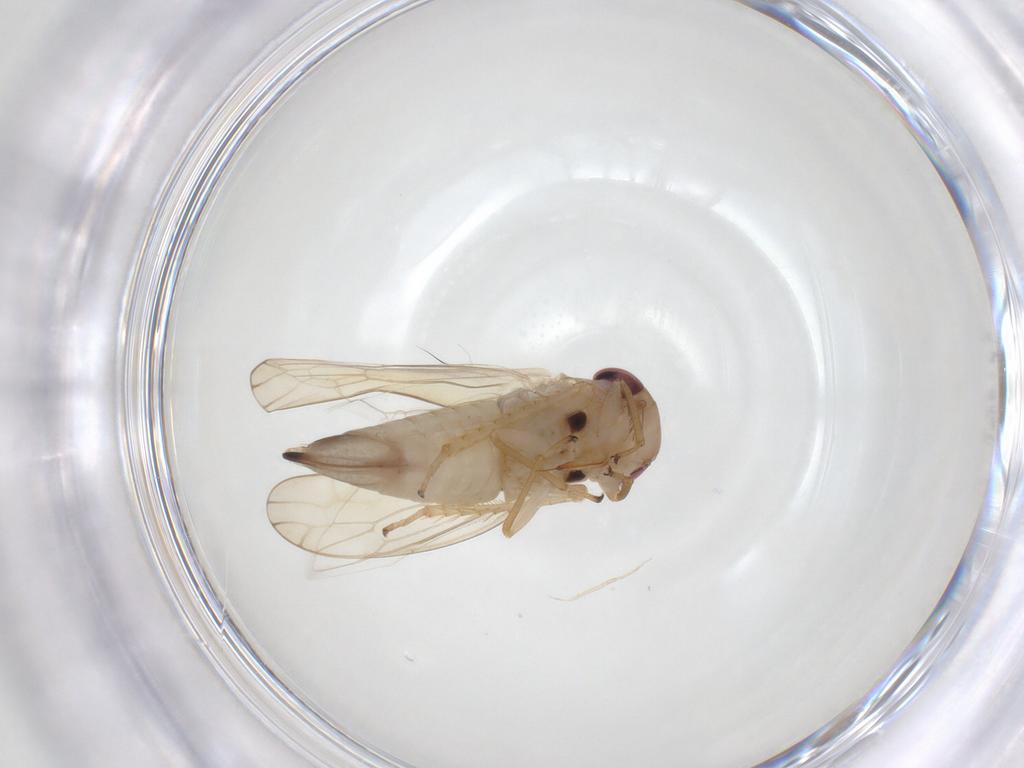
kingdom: Animalia
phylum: Arthropoda
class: Insecta
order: Hemiptera
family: Cicadellidae
